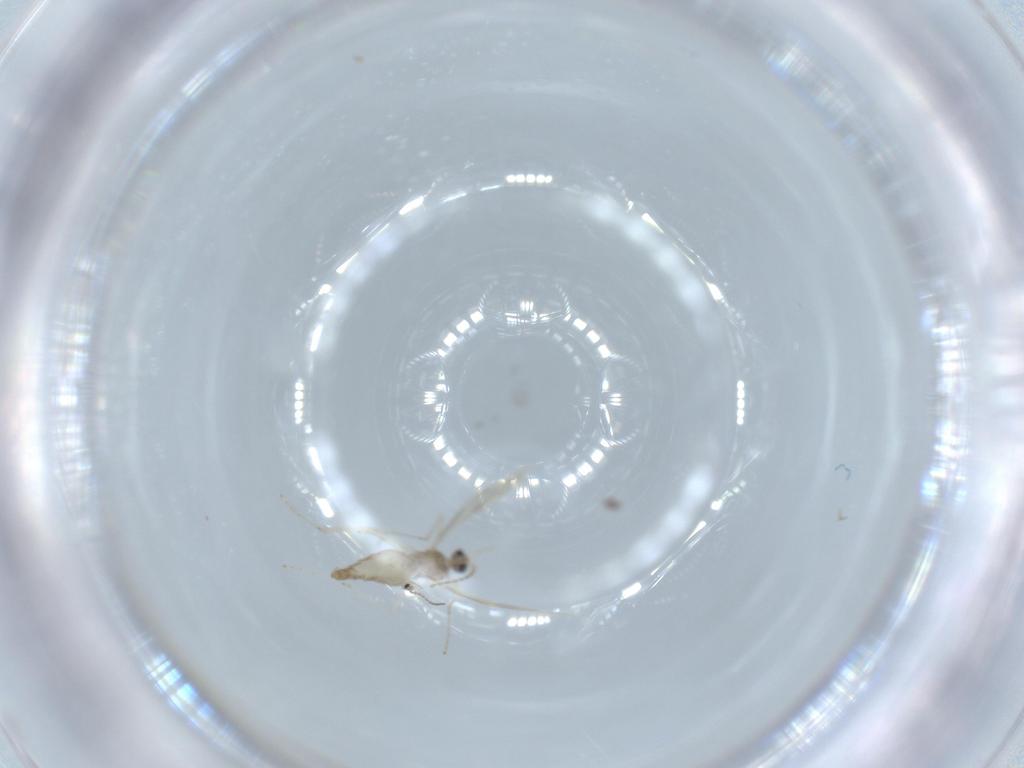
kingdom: Animalia
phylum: Arthropoda
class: Insecta
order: Diptera
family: Cecidomyiidae
